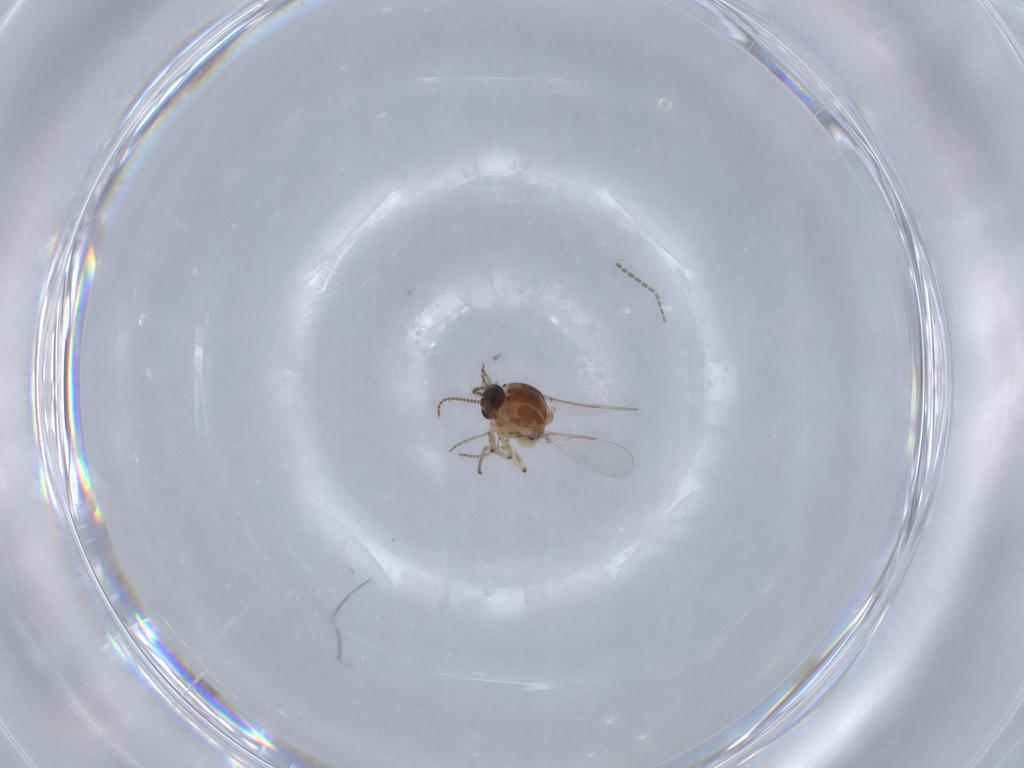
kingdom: Animalia
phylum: Arthropoda
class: Insecta
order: Diptera
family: Ceratopogonidae
